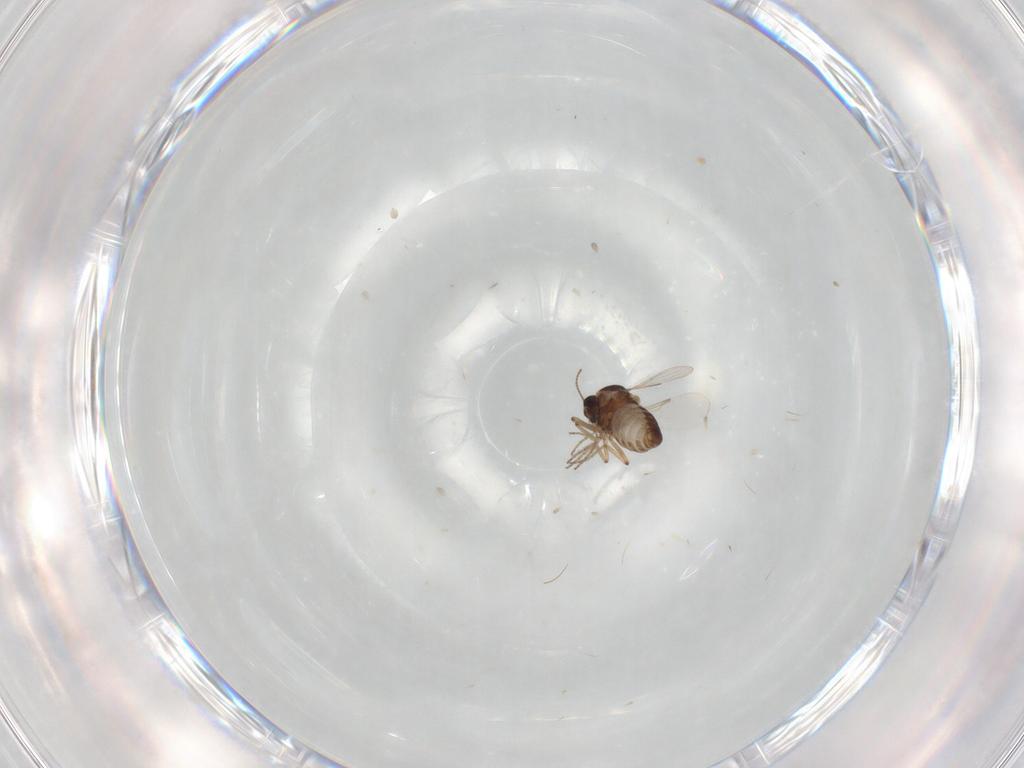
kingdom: Animalia
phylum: Arthropoda
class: Insecta
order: Diptera
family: Ceratopogonidae
